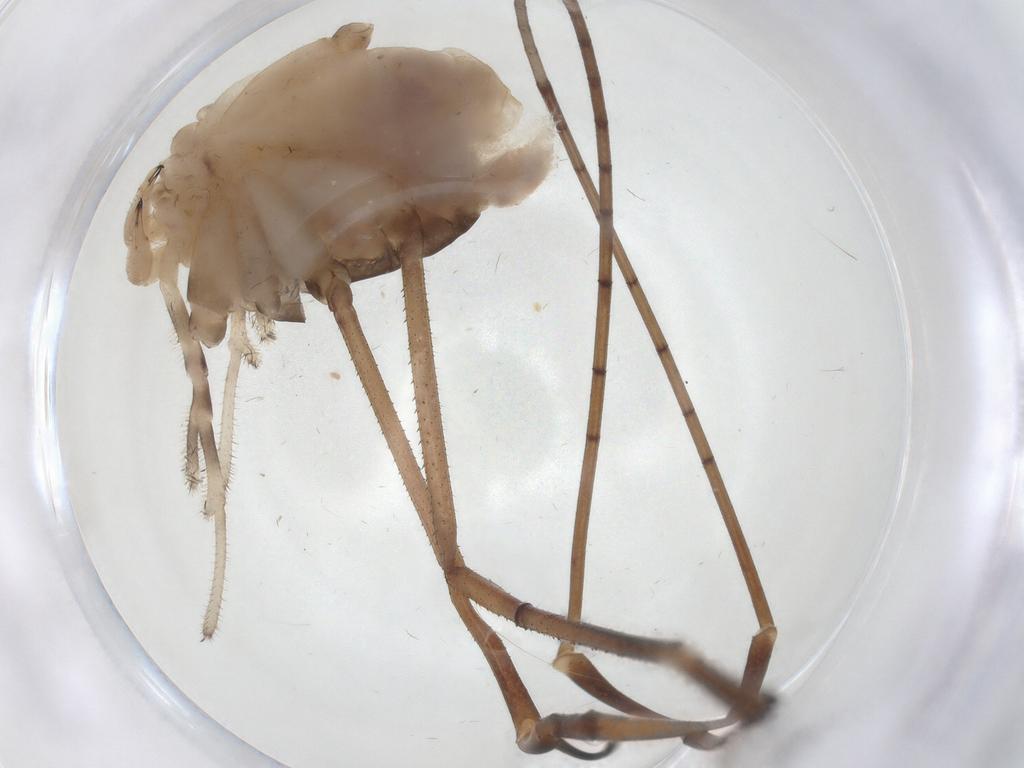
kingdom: Animalia
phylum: Arthropoda
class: Arachnida
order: Opiliones
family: Sclerosomatidae
